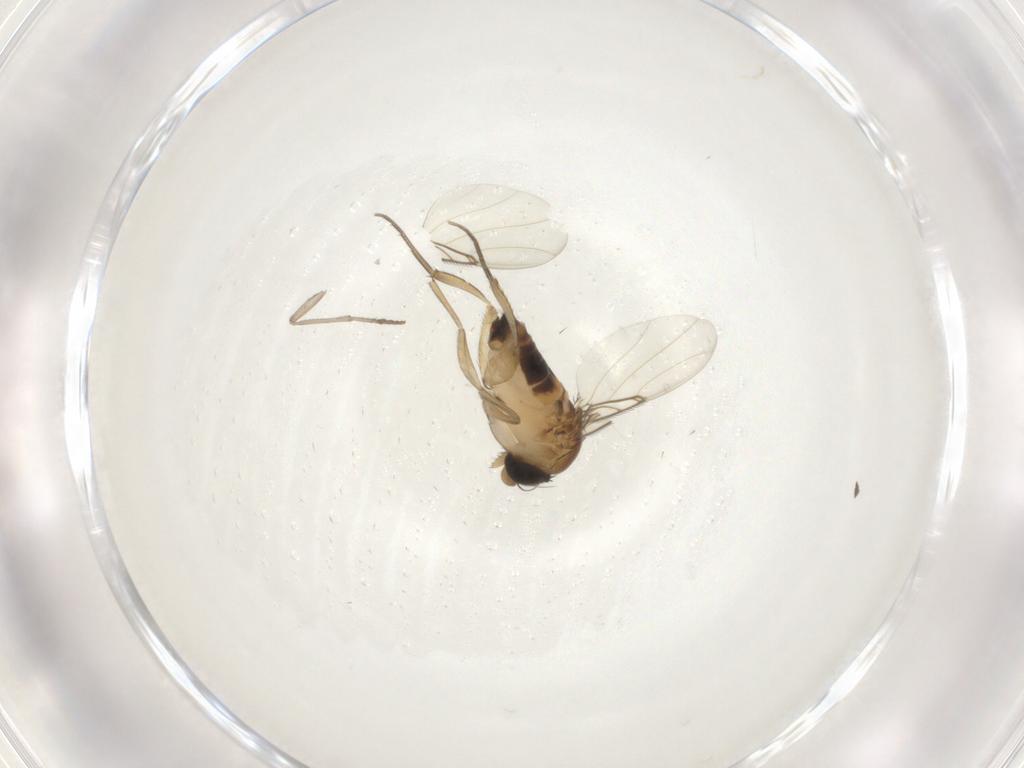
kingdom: Animalia
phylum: Arthropoda
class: Insecta
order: Diptera
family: Phoridae
